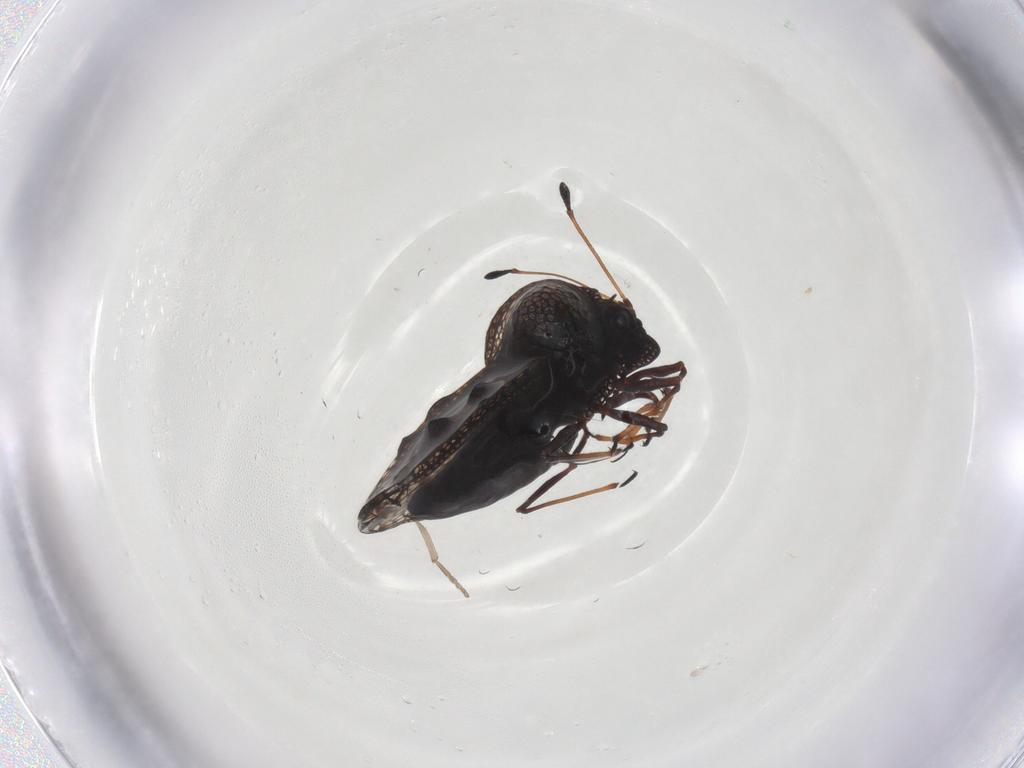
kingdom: Animalia
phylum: Arthropoda
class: Insecta
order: Hemiptera
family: Tingidae
